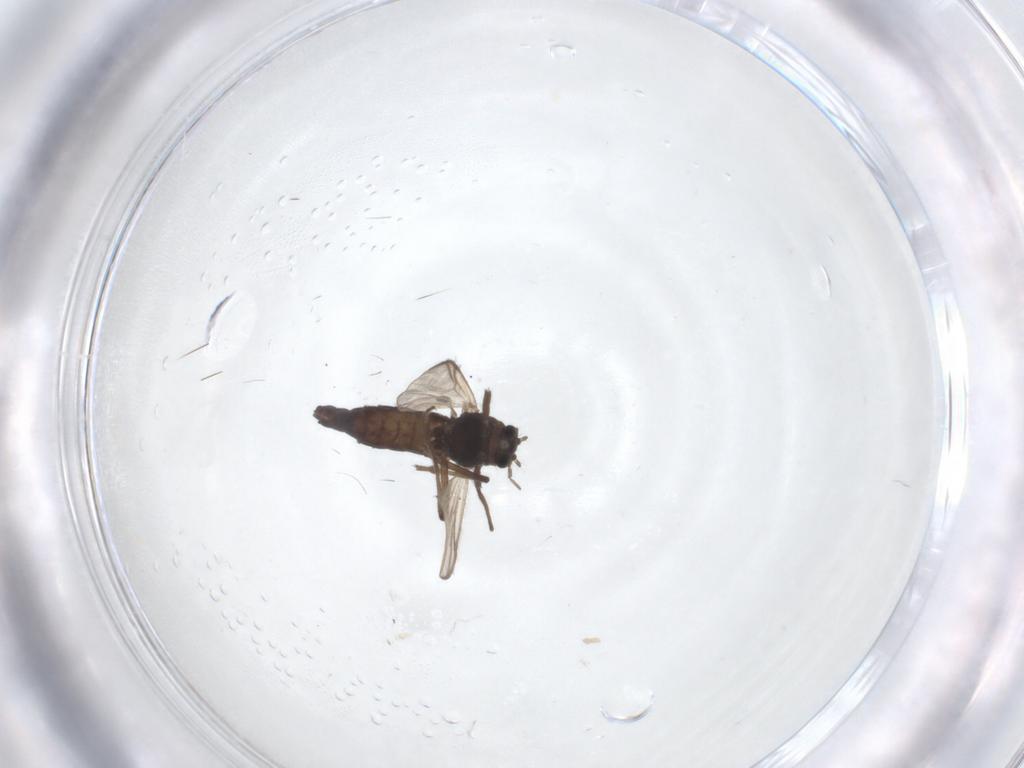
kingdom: Animalia
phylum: Arthropoda
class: Insecta
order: Diptera
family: Chironomidae
